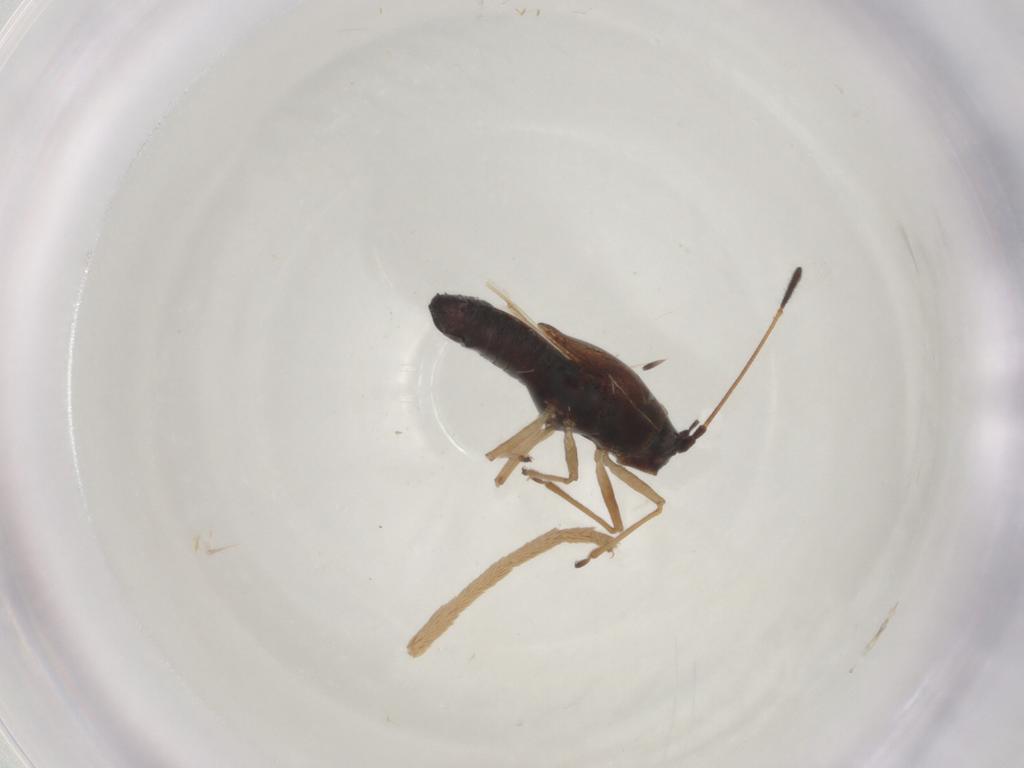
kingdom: Animalia
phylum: Arthropoda
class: Insecta
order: Hemiptera
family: Tingidae
